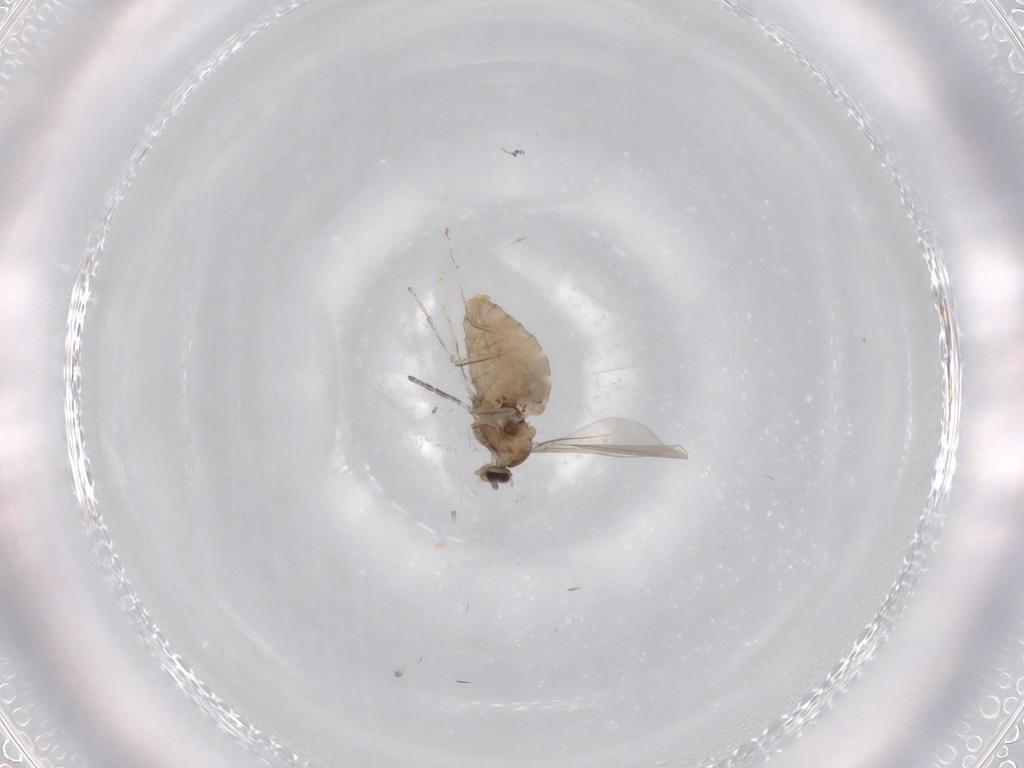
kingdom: Animalia
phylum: Arthropoda
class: Insecta
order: Diptera
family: Cecidomyiidae
